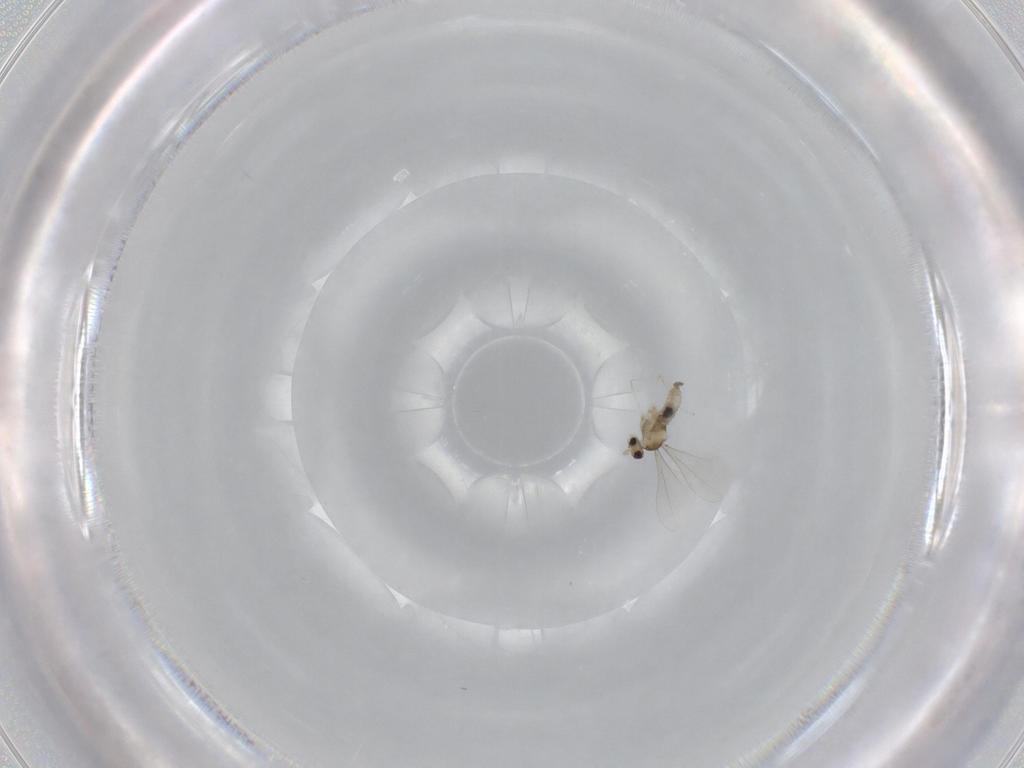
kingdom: Animalia
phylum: Arthropoda
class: Insecta
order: Diptera
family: Cecidomyiidae
